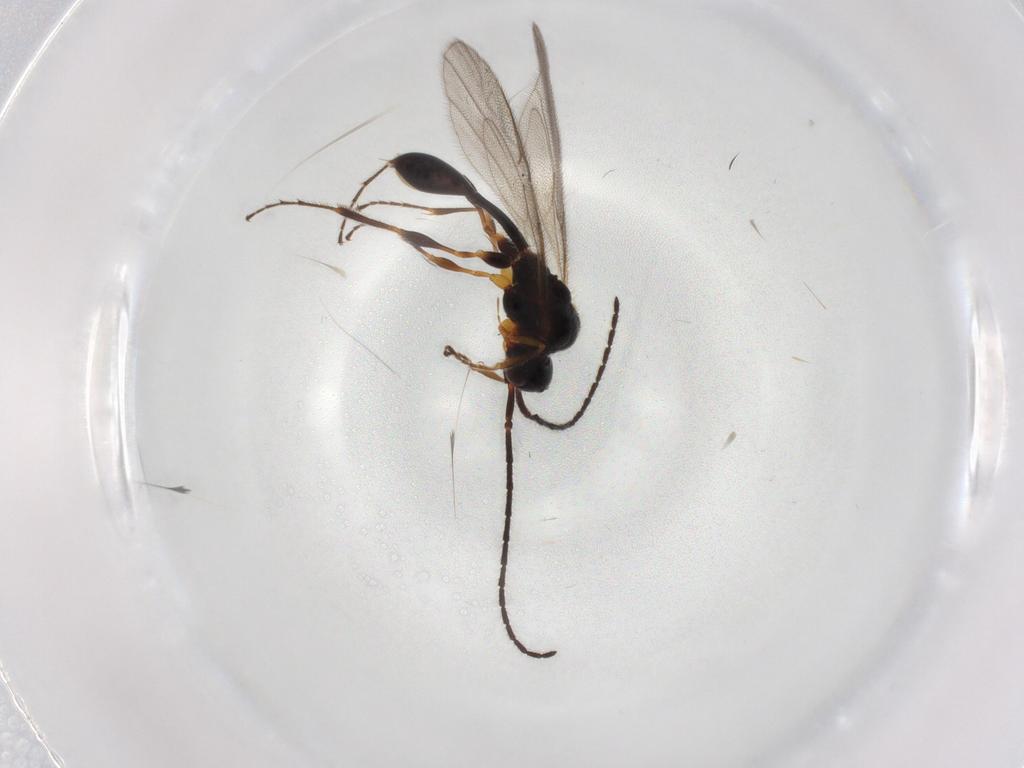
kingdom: Animalia
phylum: Arthropoda
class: Insecta
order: Hymenoptera
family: Diapriidae
